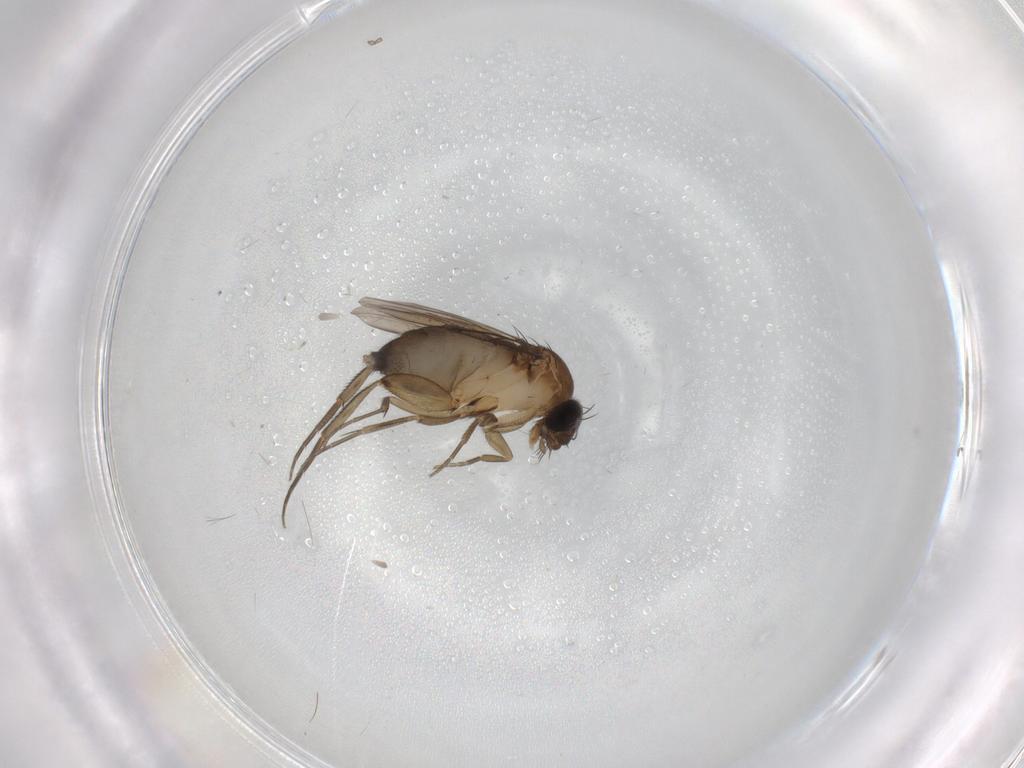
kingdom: Animalia
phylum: Arthropoda
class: Insecta
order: Diptera
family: Phoridae
